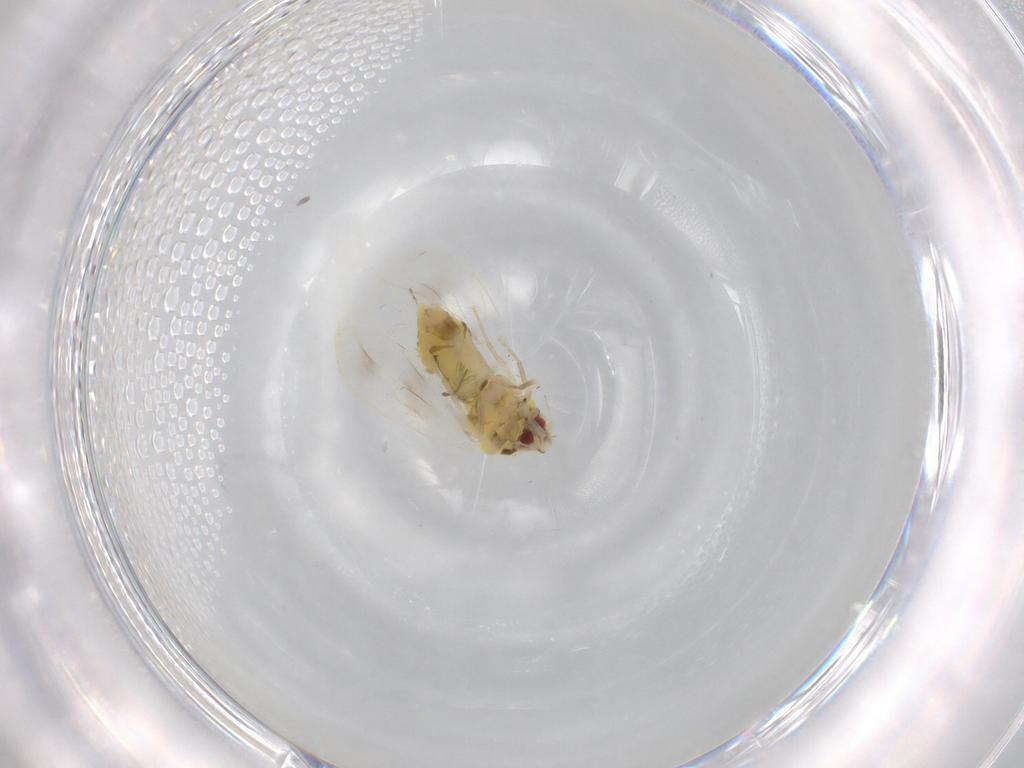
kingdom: Animalia
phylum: Arthropoda
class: Insecta
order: Hemiptera
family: Aleyrodidae
